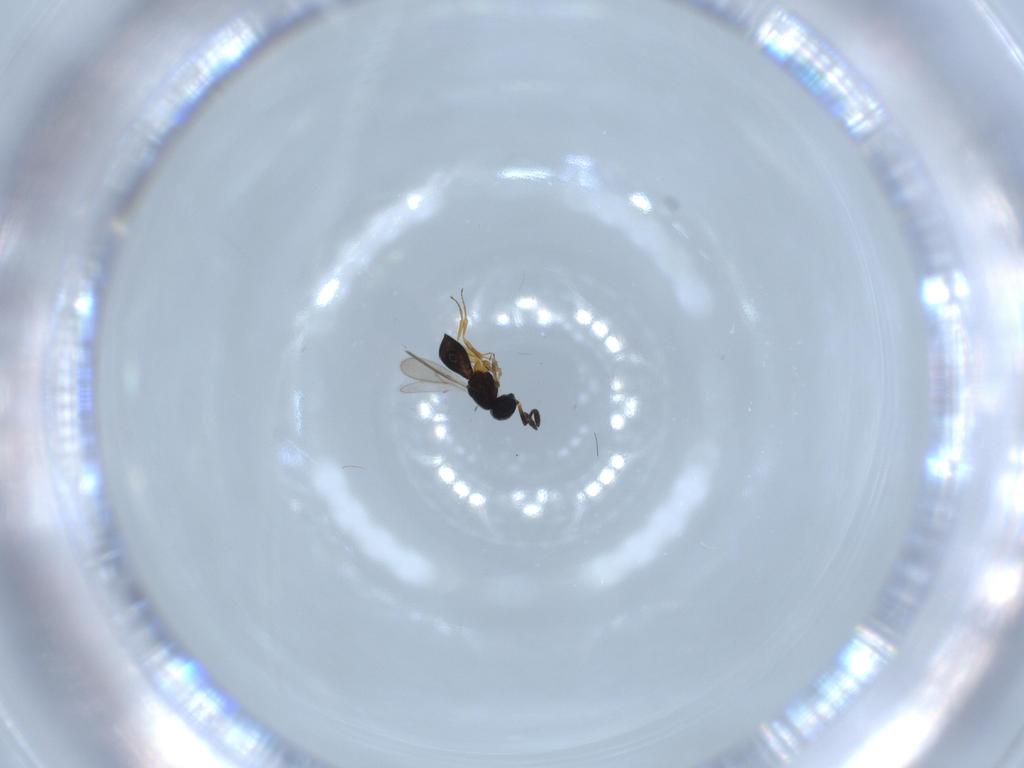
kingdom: Animalia
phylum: Arthropoda
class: Insecta
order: Hymenoptera
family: Scelionidae
